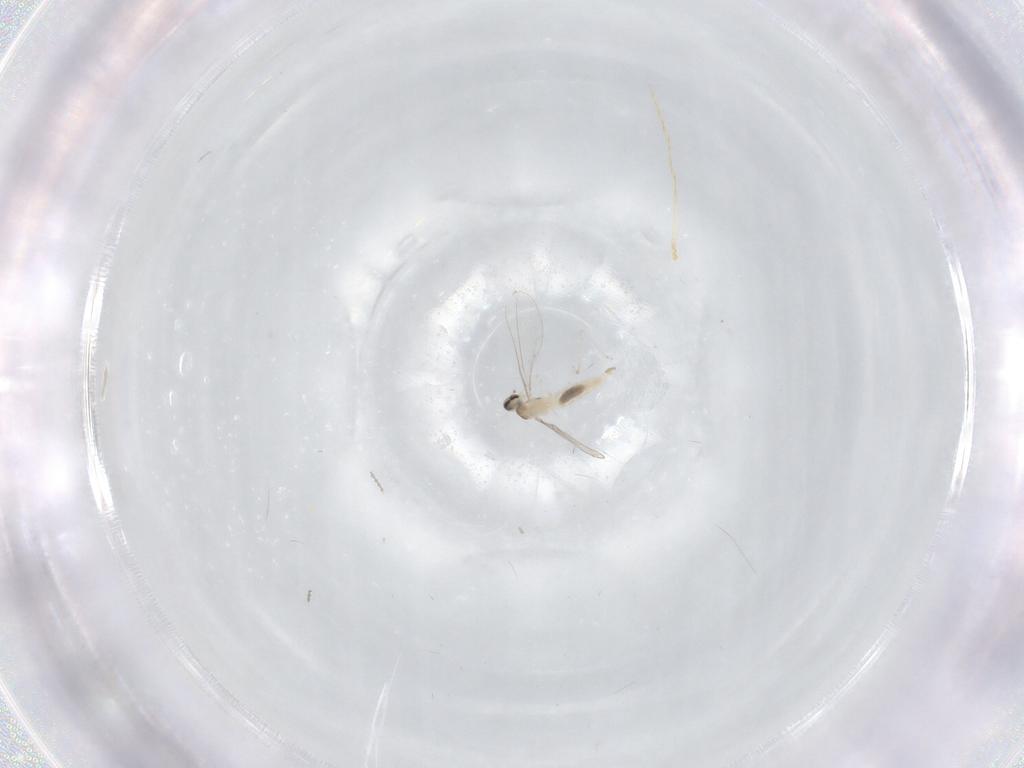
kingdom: Animalia
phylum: Arthropoda
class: Insecta
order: Diptera
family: Cecidomyiidae
